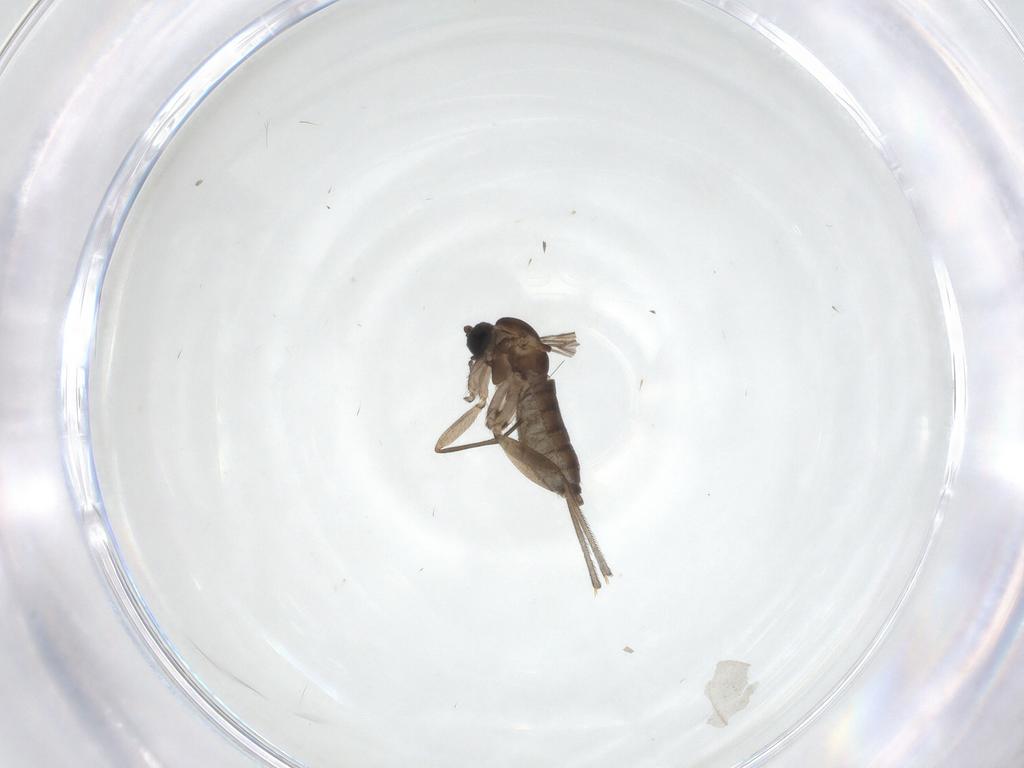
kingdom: Animalia
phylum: Arthropoda
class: Insecta
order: Diptera
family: Sciaridae
